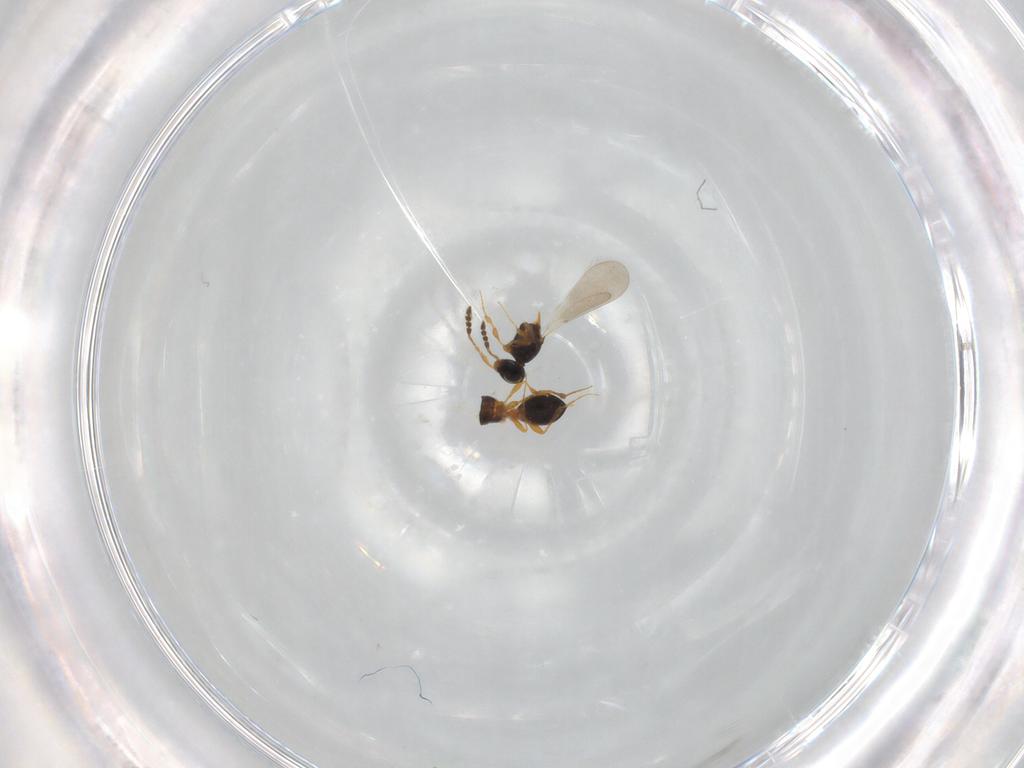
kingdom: Animalia
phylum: Arthropoda
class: Insecta
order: Hymenoptera
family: Platygastridae
